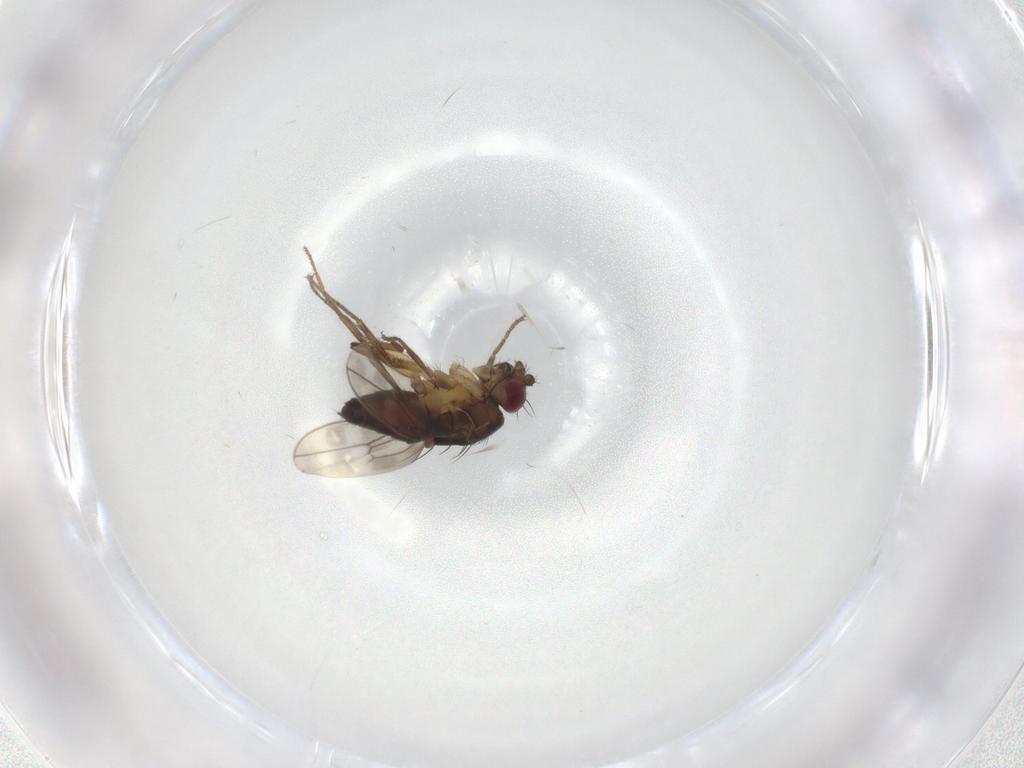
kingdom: Animalia
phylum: Arthropoda
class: Insecta
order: Diptera
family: Sphaeroceridae
